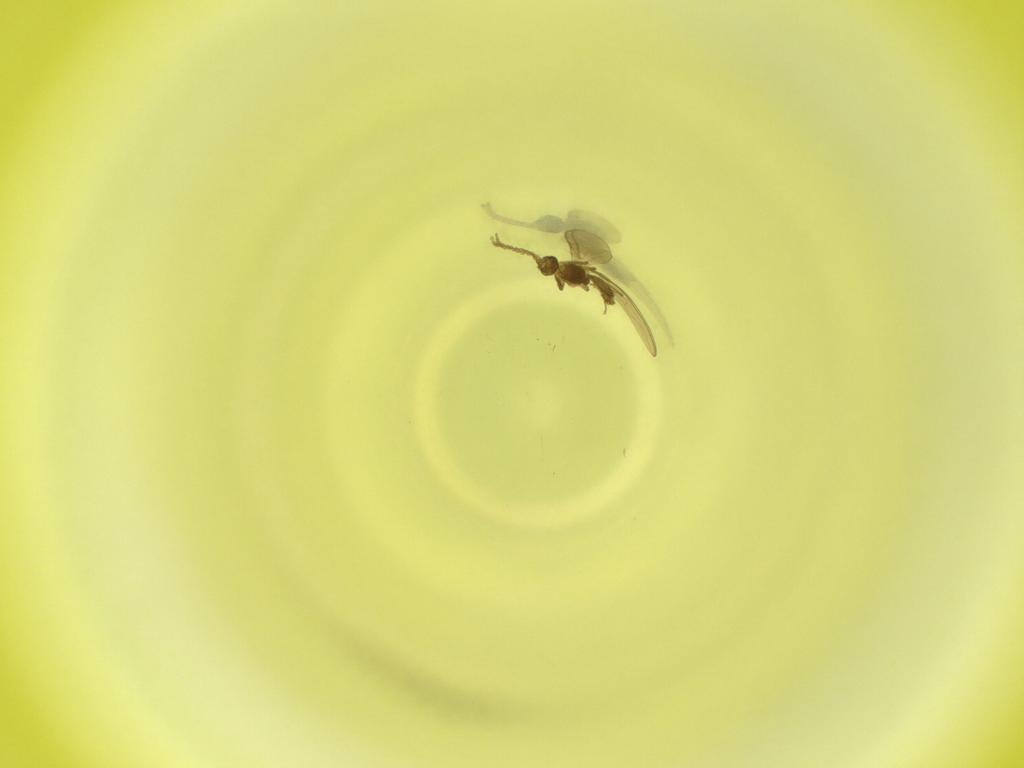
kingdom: Animalia
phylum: Arthropoda
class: Insecta
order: Diptera
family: Cecidomyiidae
